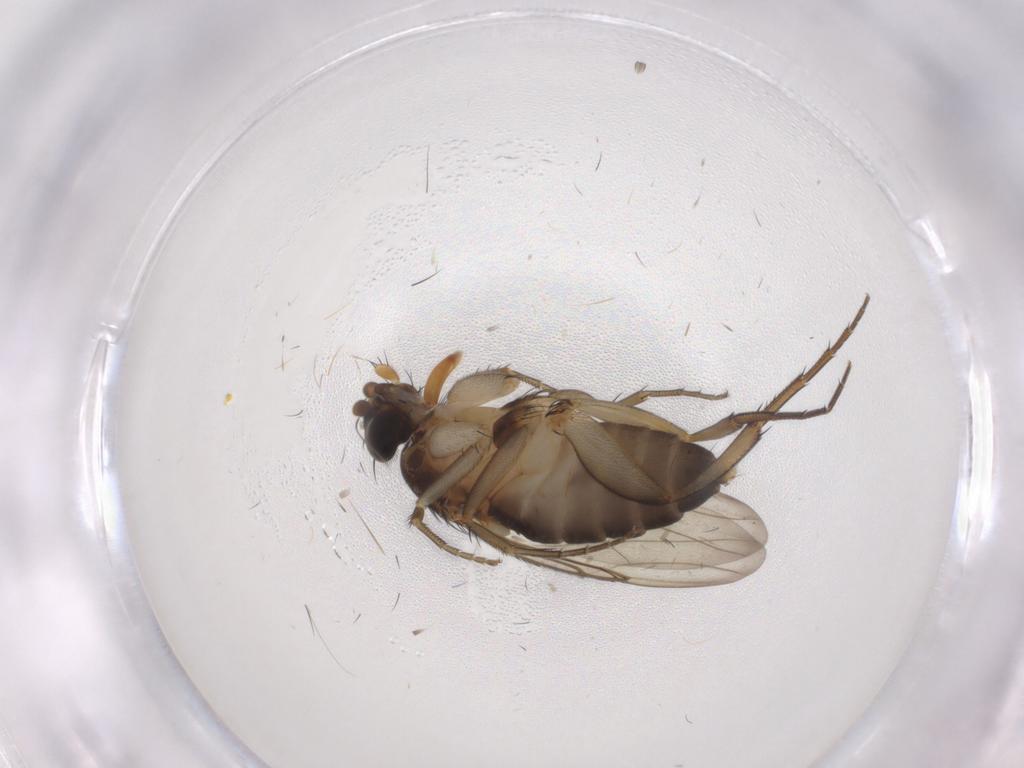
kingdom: Animalia
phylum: Arthropoda
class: Insecta
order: Diptera
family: Phoridae
